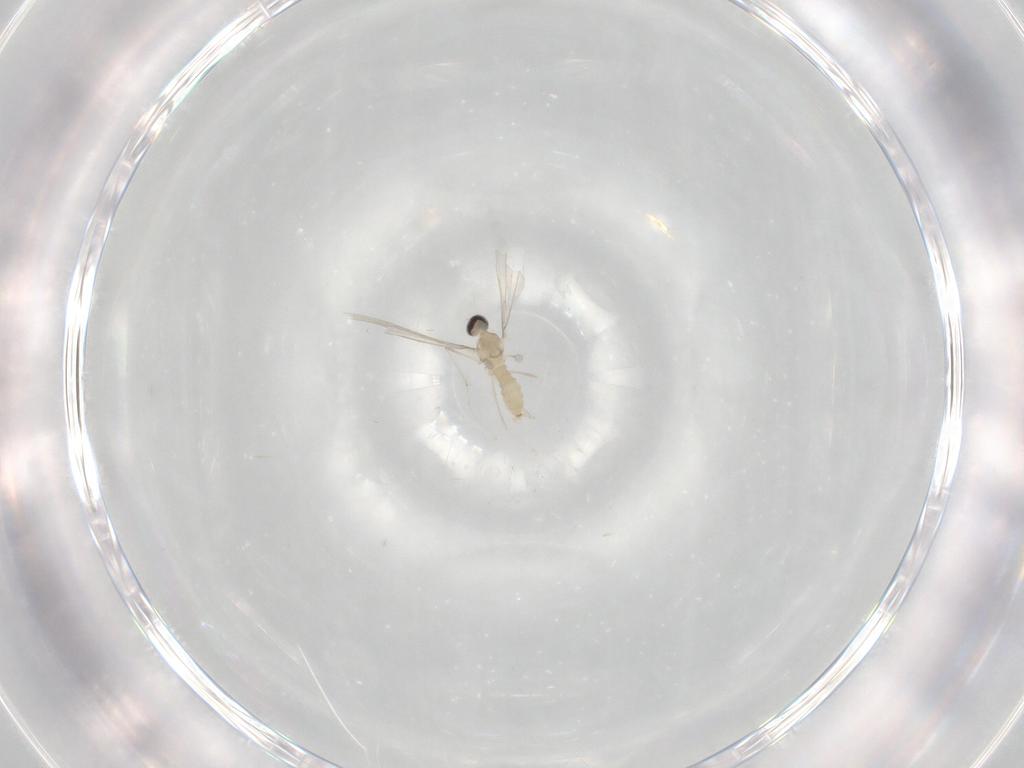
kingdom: Animalia
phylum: Arthropoda
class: Insecta
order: Diptera
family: Cecidomyiidae
